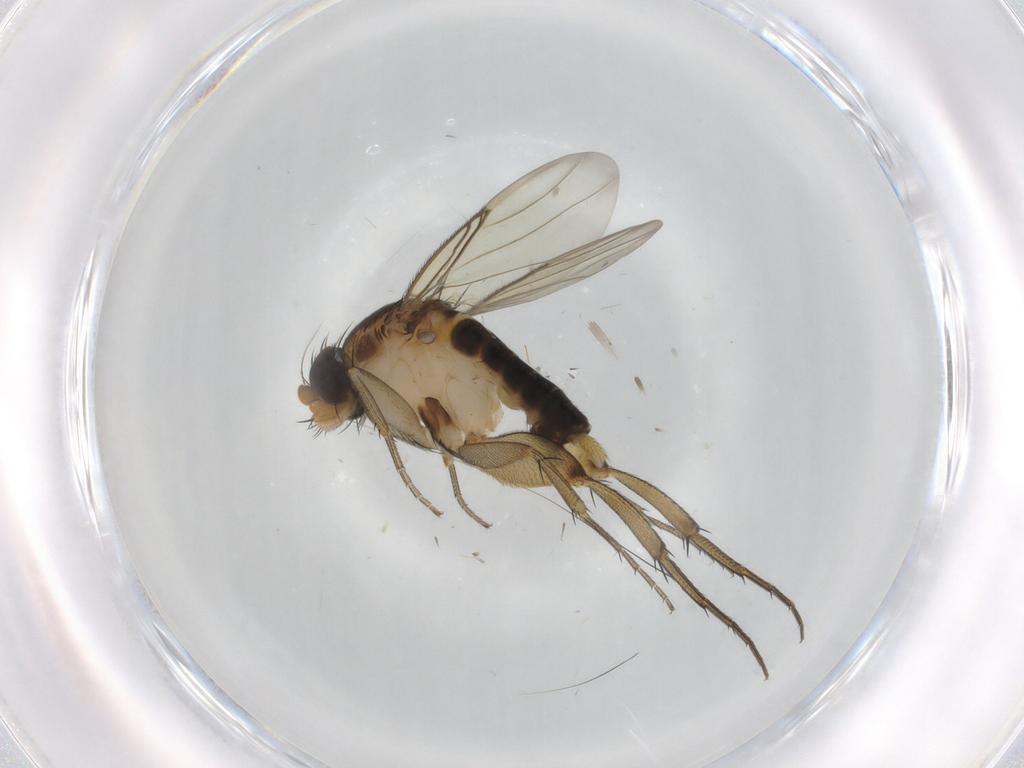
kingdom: Animalia
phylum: Arthropoda
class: Insecta
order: Diptera
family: Phoridae
